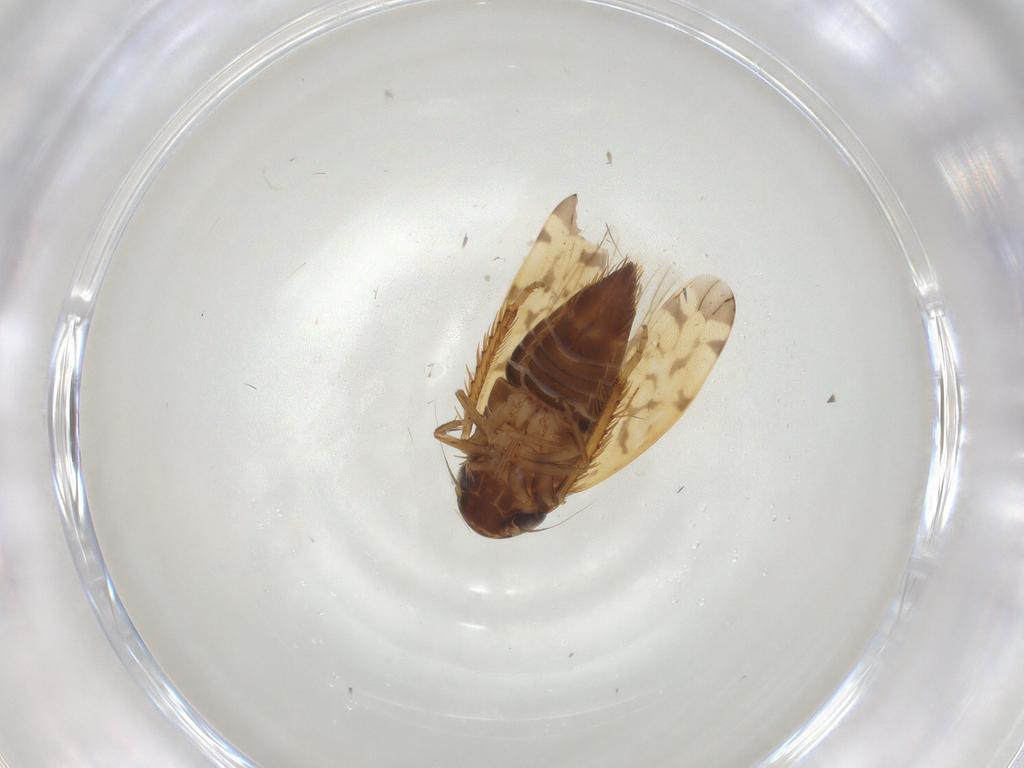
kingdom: Animalia
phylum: Arthropoda
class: Insecta
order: Hemiptera
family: Cicadellidae
